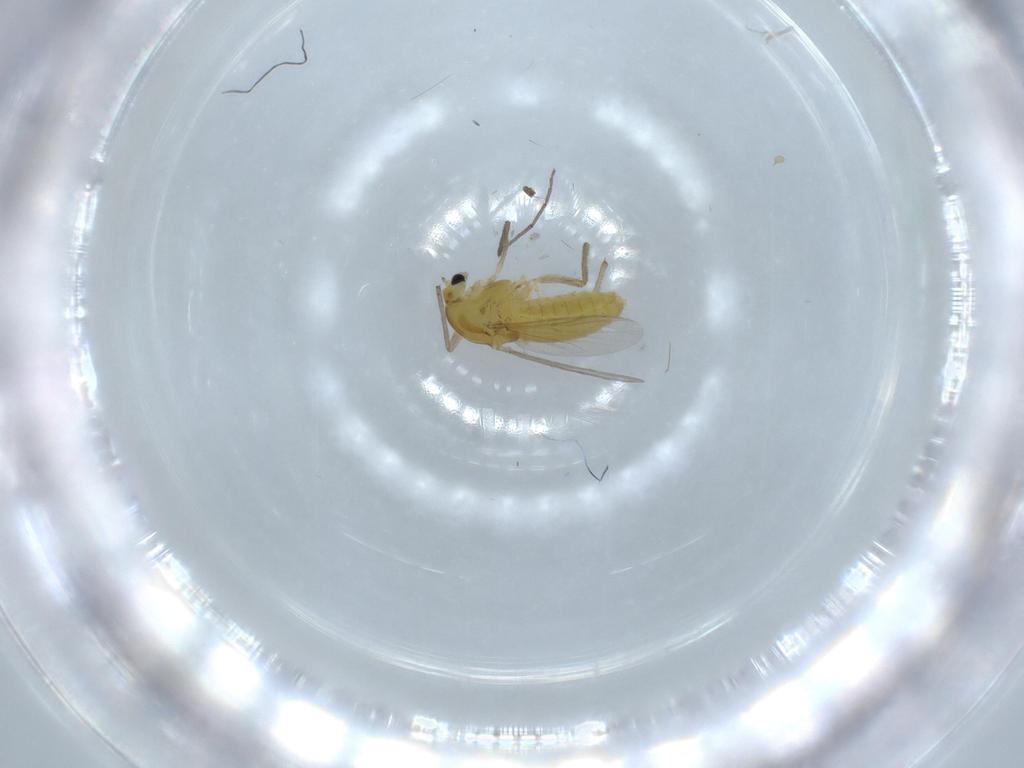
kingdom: Animalia
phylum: Arthropoda
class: Insecta
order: Diptera
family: Chironomidae
